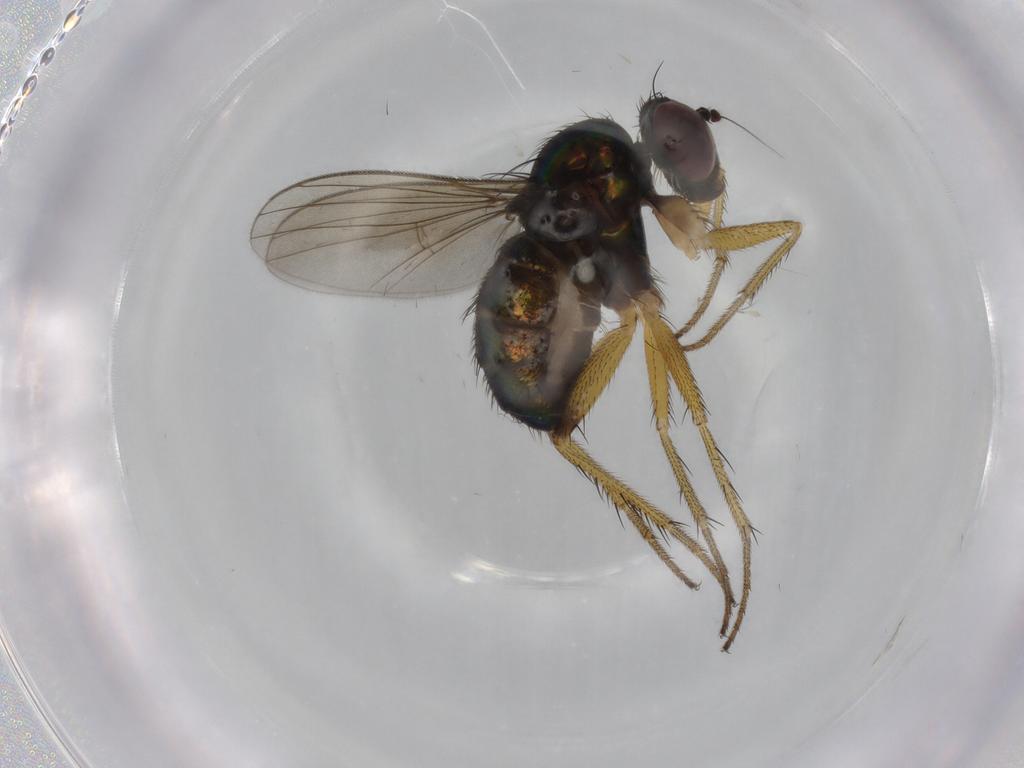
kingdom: Animalia
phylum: Arthropoda
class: Insecta
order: Diptera
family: Dolichopodidae
